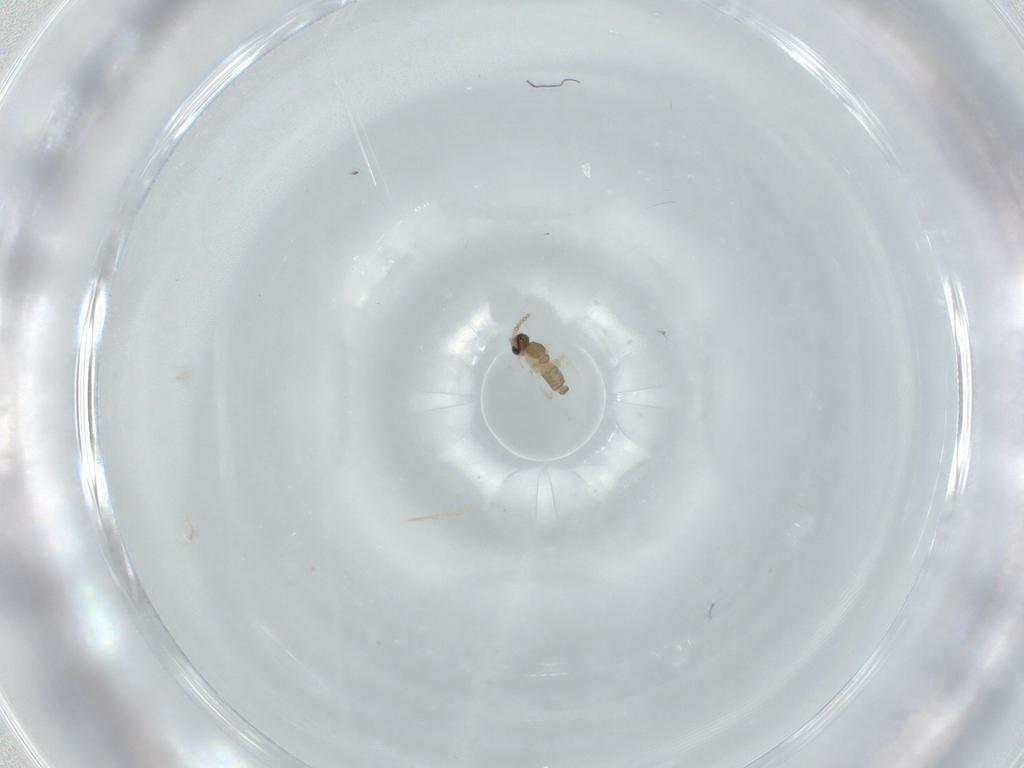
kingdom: Animalia
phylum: Arthropoda
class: Insecta
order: Diptera
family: Cecidomyiidae
